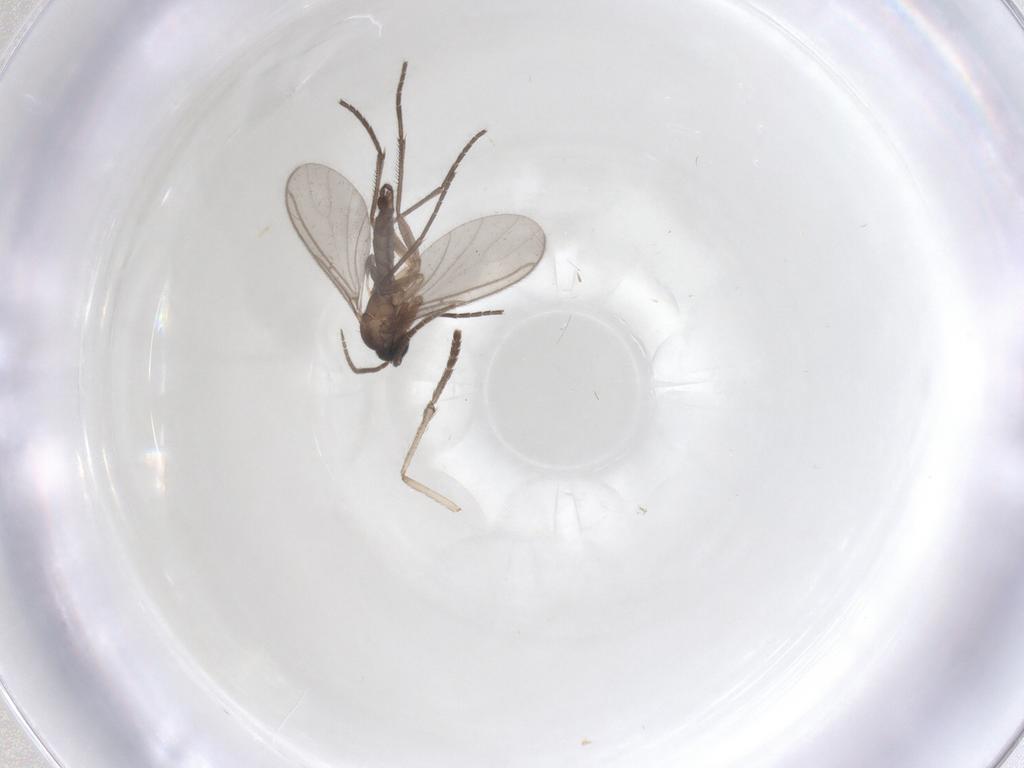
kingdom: Animalia
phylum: Arthropoda
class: Insecta
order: Diptera
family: Sciaridae
